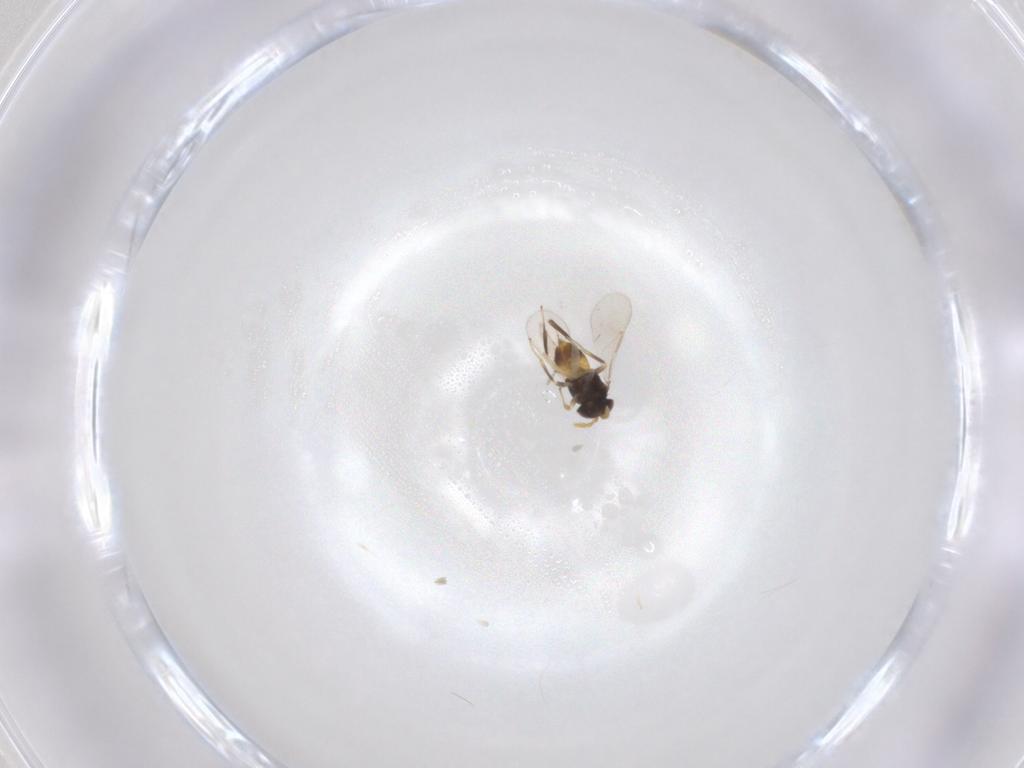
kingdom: Animalia
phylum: Arthropoda
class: Insecta
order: Hymenoptera
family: Aphelinidae
